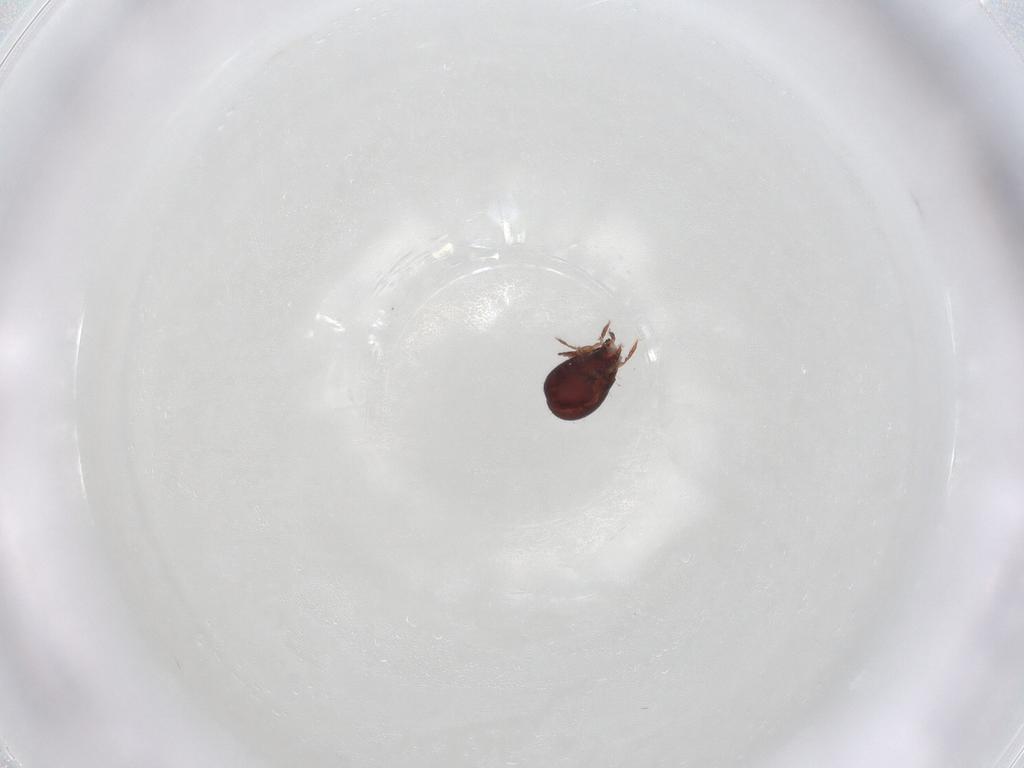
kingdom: Animalia
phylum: Arthropoda
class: Arachnida
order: Sarcoptiformes
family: Humerobatidae
